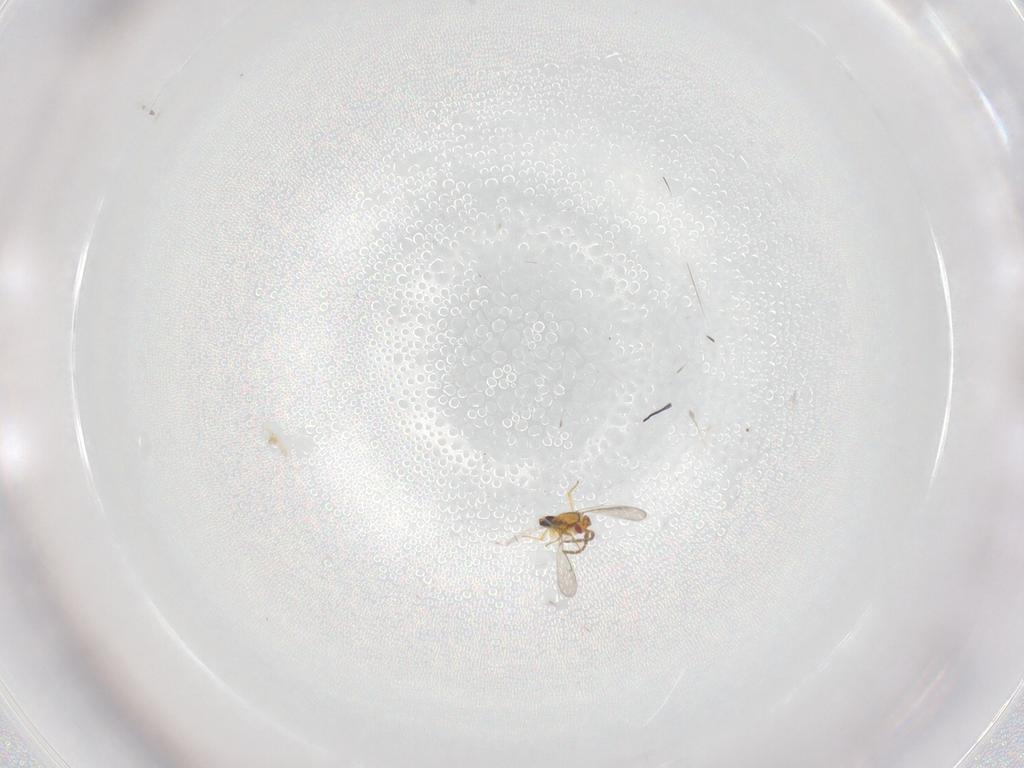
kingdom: Animalia
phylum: Arthropoda
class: Insecta
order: Hymenoptera
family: Aphelinidae
